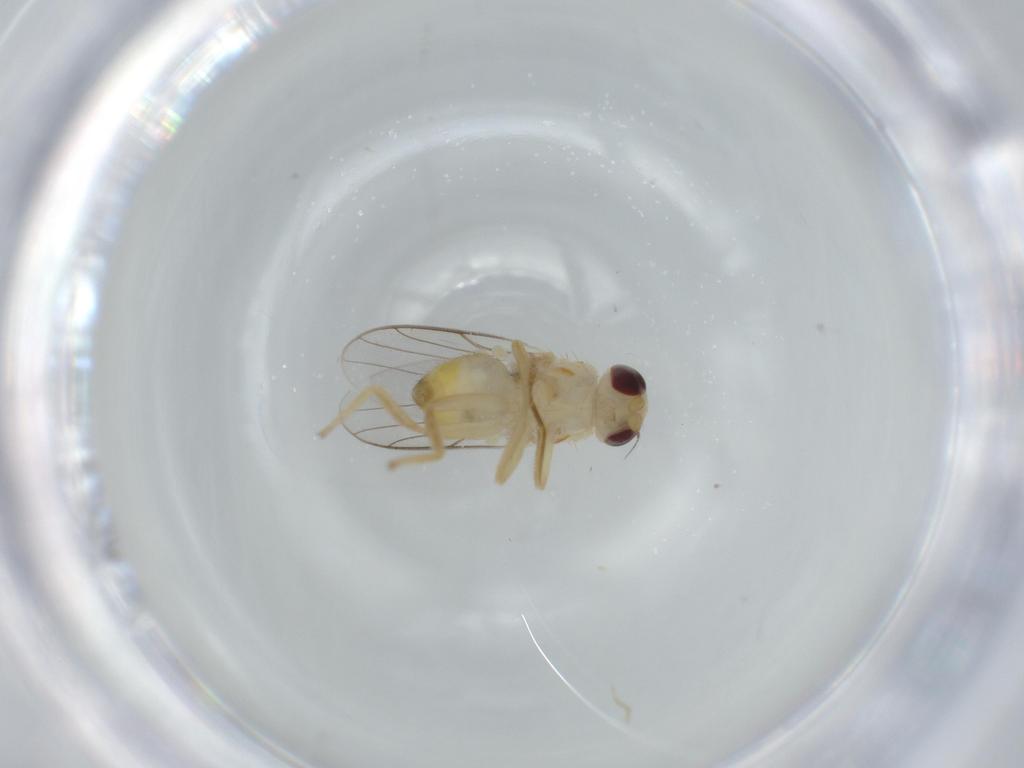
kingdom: Animalia
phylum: Arthropoda
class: Insecta
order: Diptera
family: Chloropidae
